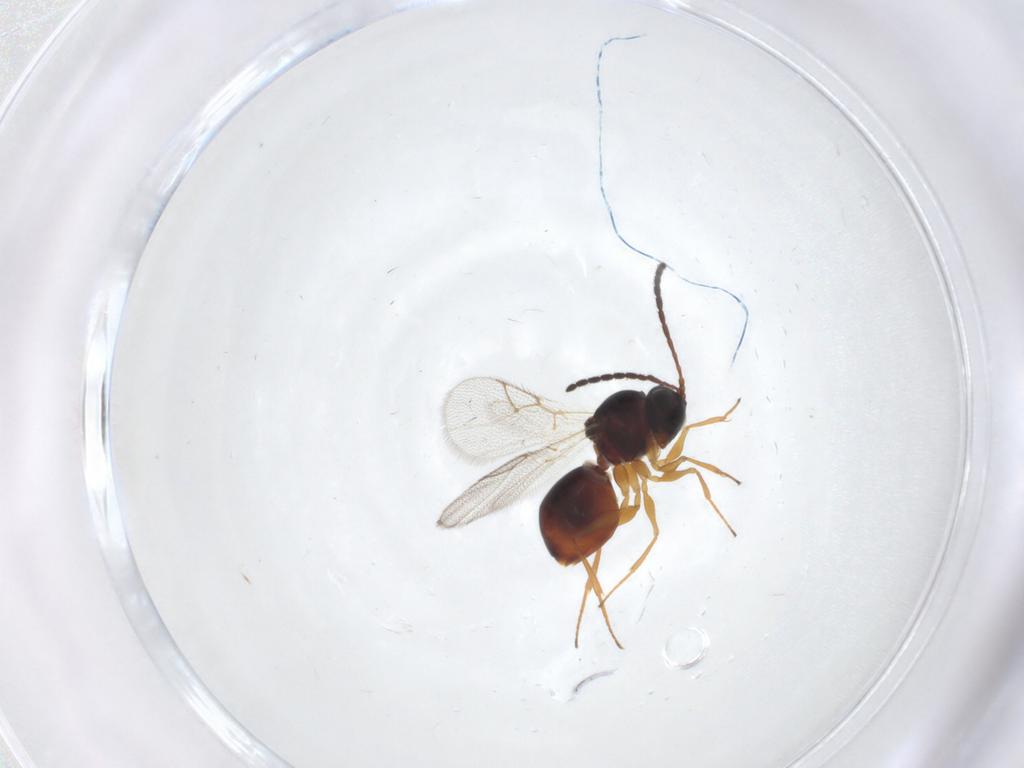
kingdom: Animalia
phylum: Arthropoda
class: Insecta
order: Hymenoptera
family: Figitidae
